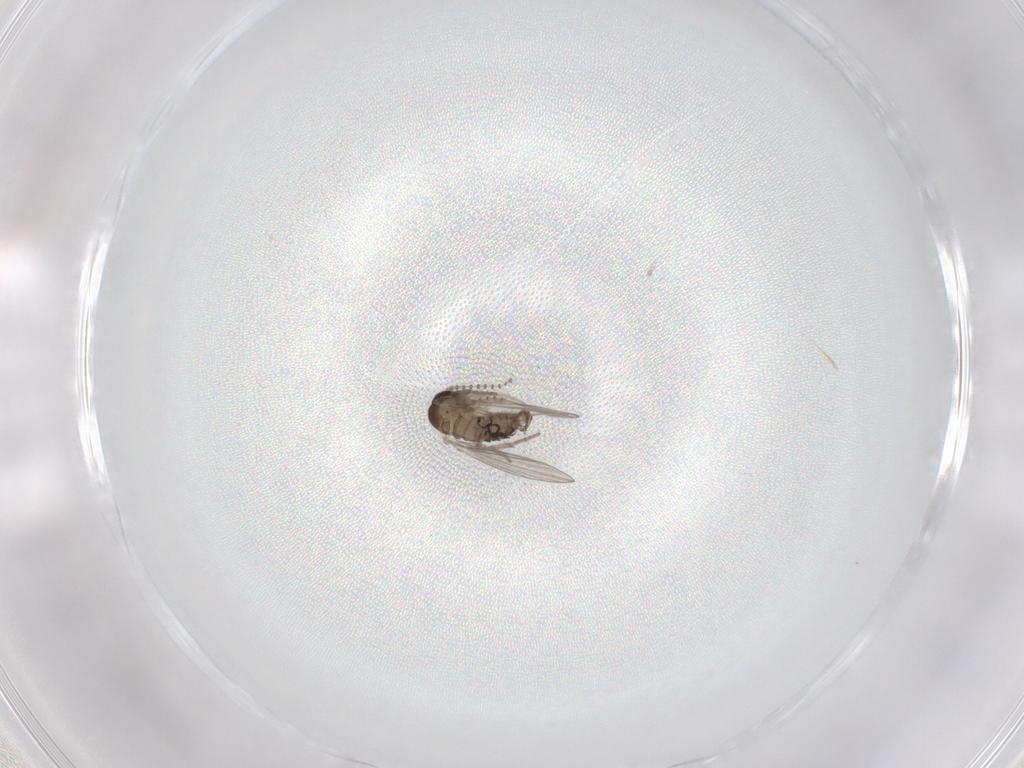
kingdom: Animalia
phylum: Arthropoda
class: Insecta
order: Diptera
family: Psychodidae
